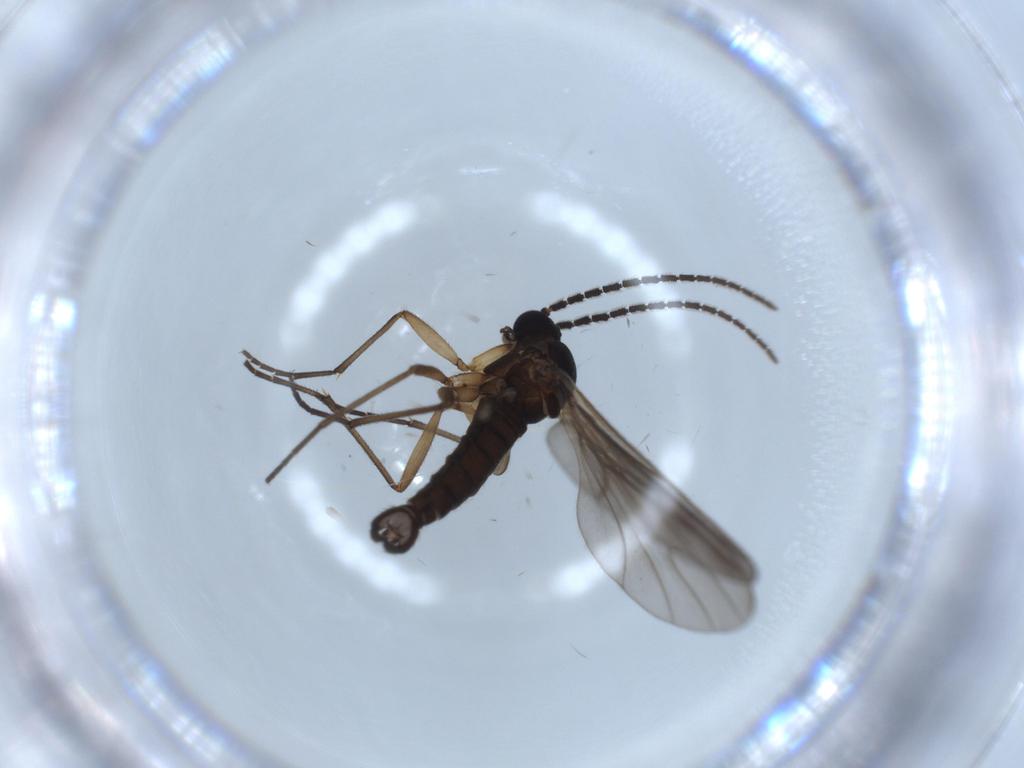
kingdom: Animalia
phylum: Arthropoda
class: Insecta
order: Diptera
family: Sciaridae
